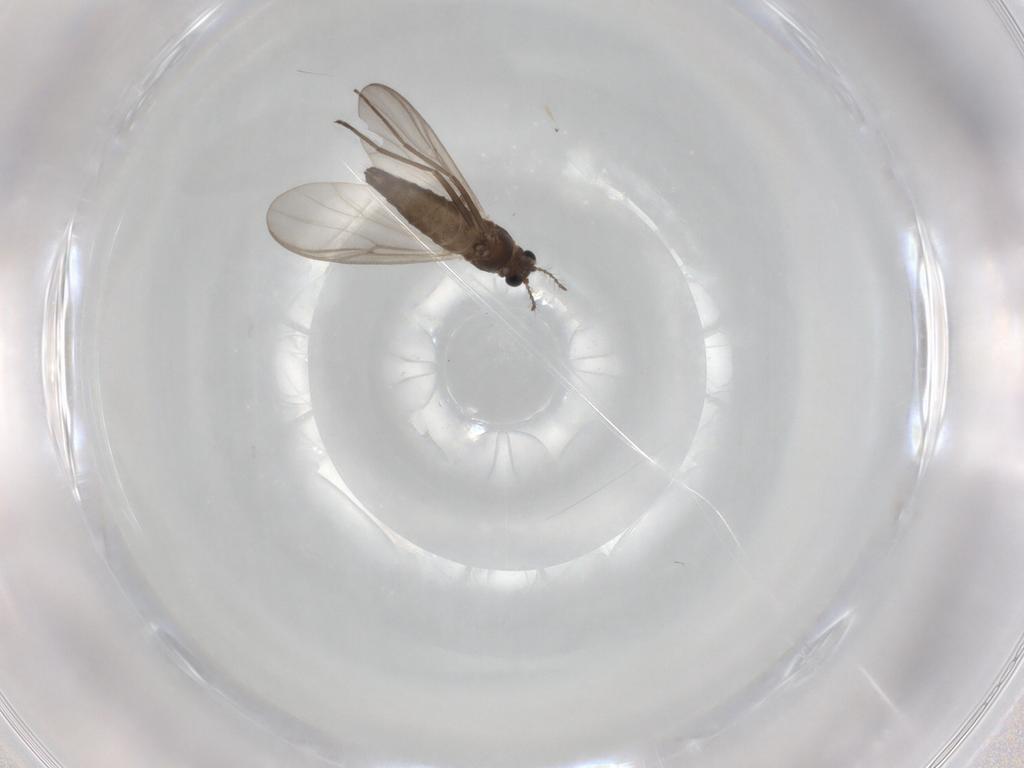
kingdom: Animalia
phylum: Arthropoda
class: Insecta
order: Diptera
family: Chironomidae
